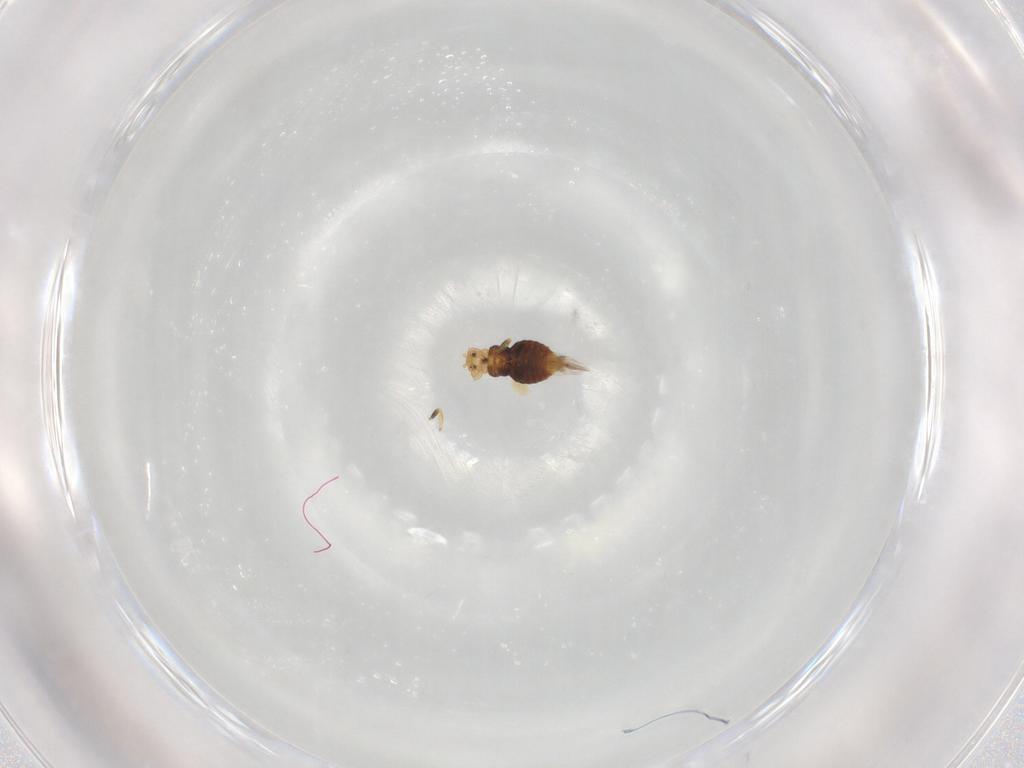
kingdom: Animalia
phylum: Arthropoda
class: Insecta
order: Thysanoptera
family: Thripidae
